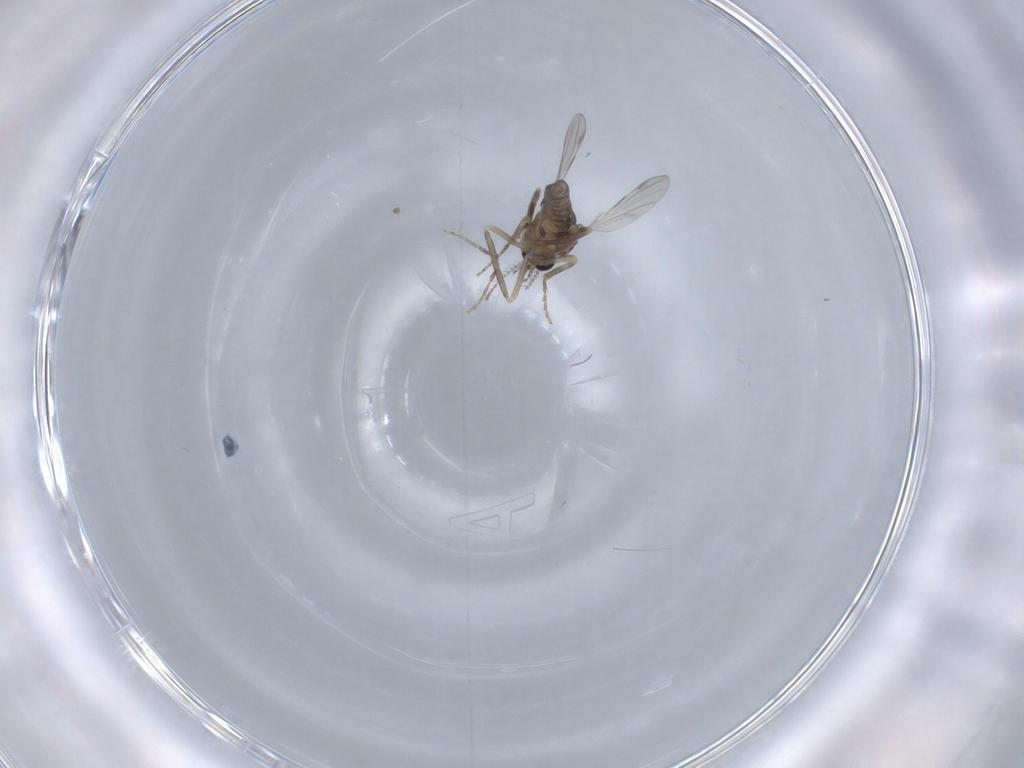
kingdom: Animalia
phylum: Arthropoda
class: Insecta
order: Diptera
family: Ceratopogonidae
